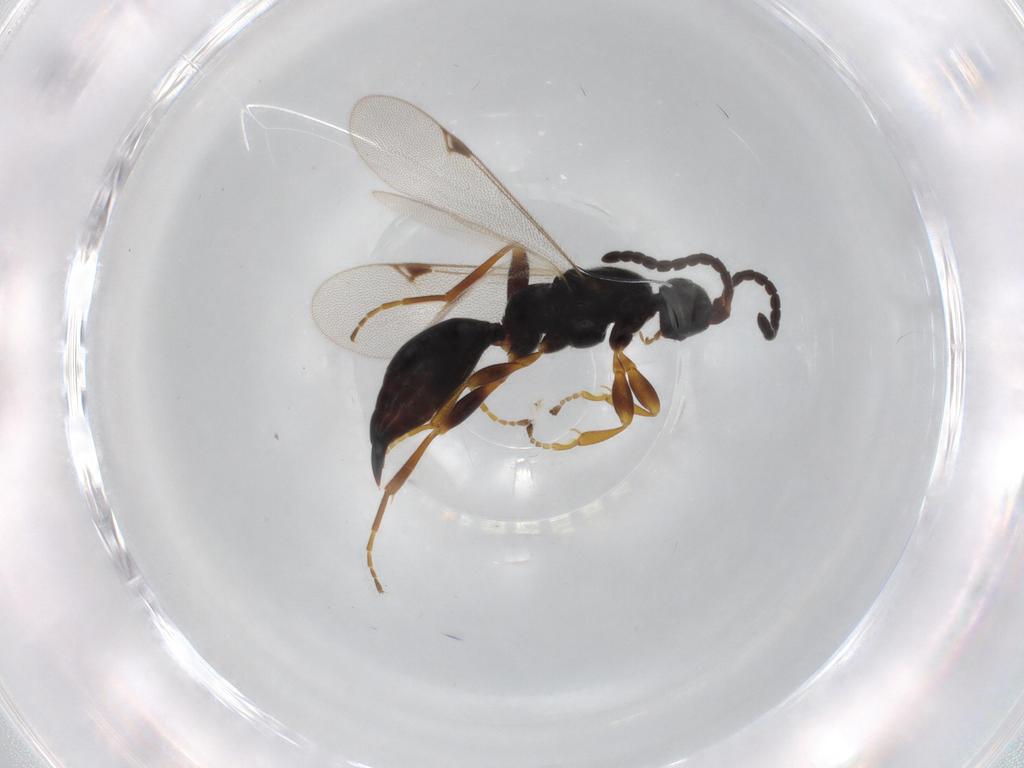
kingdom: Animalia
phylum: Arthropoda
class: Insecta
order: Hymenoptera
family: Proctotrupidae
